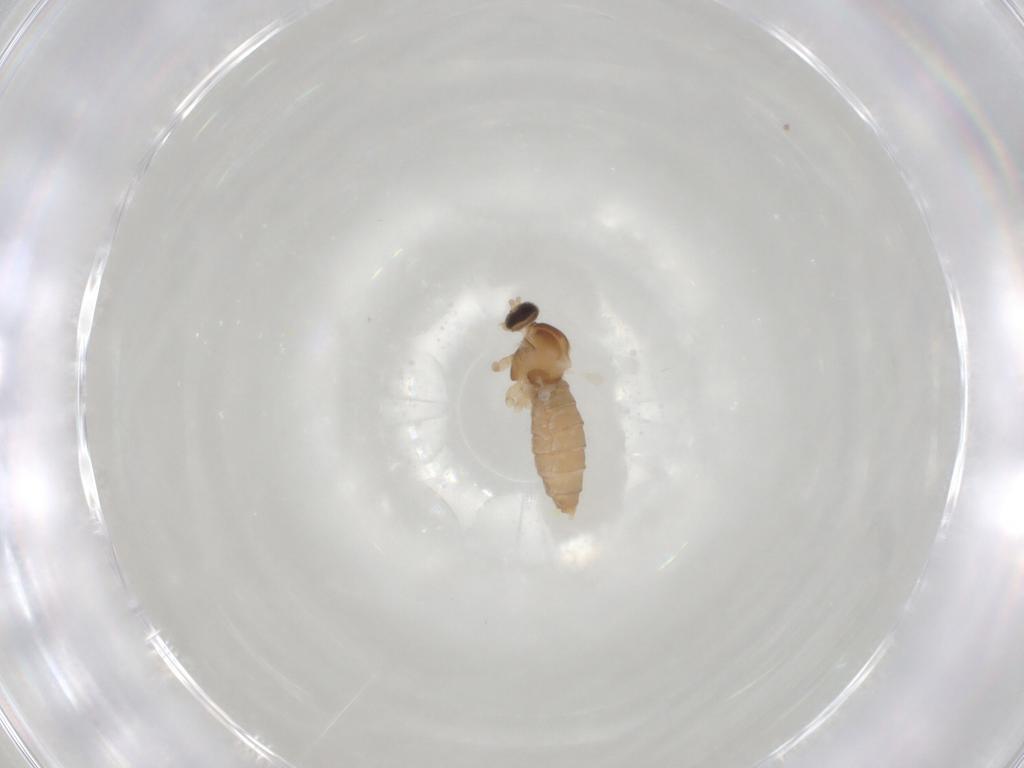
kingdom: Animalia
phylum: Arthropoda
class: Insecta
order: Diptera
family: Cecidomyiidae
